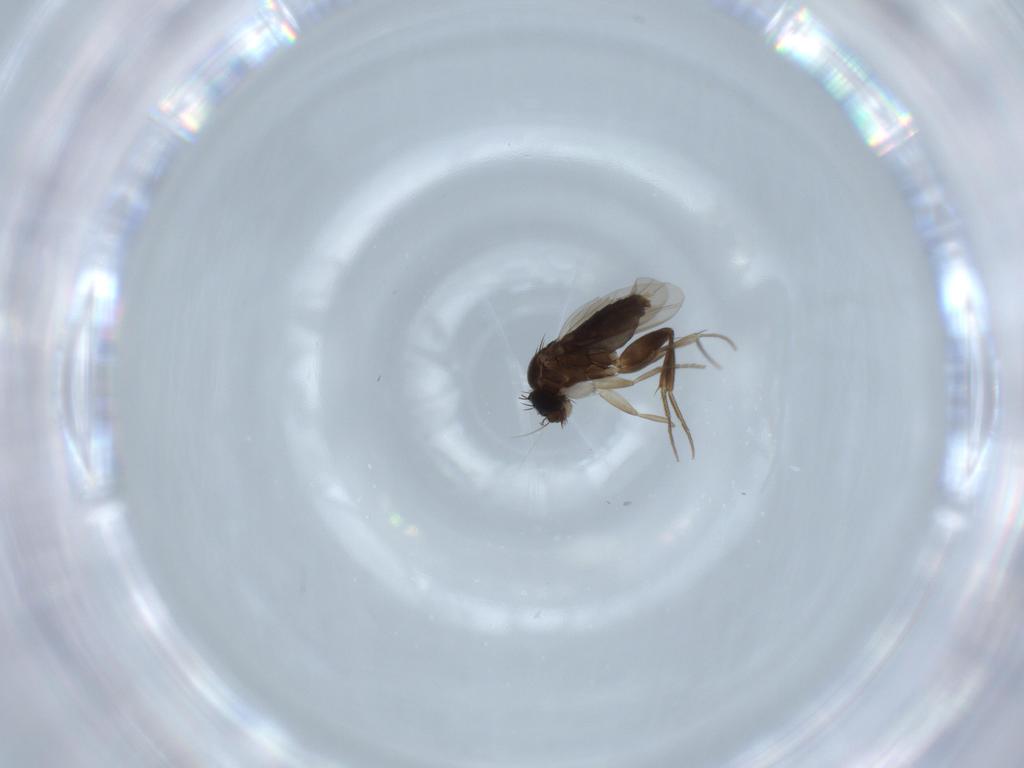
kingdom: Animalia
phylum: Arthropoda
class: Insecta
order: Diptera
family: Phoridae
